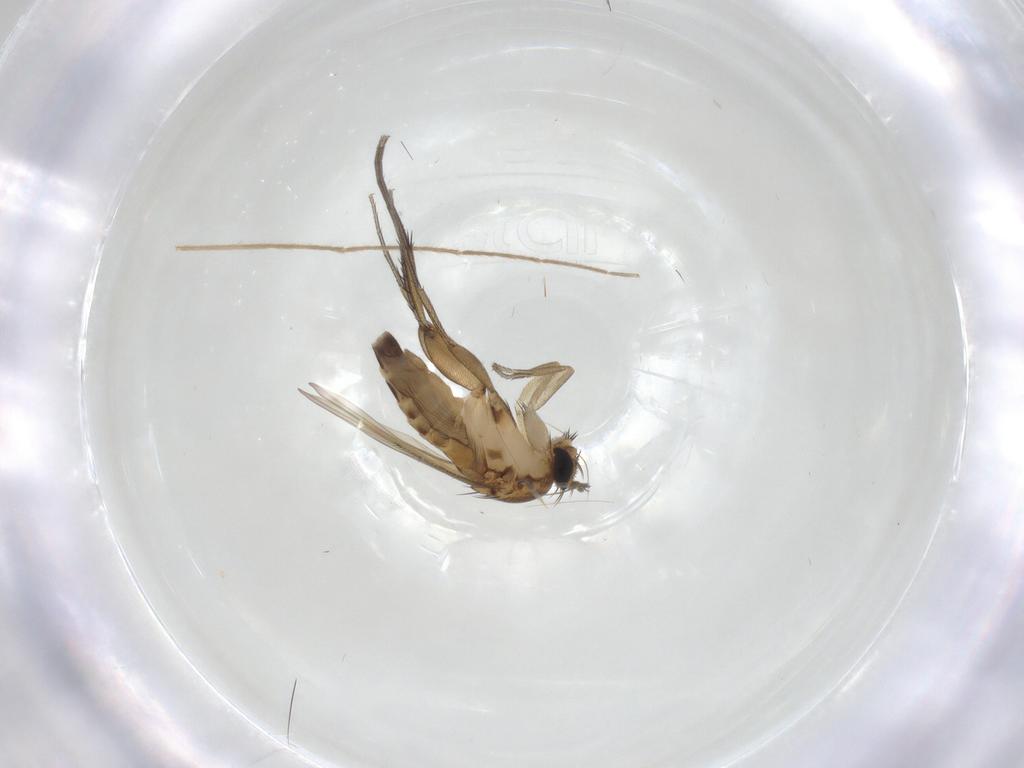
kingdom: Animalia
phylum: Arthropoda
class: Insecta
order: Diptera
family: Phoridae
